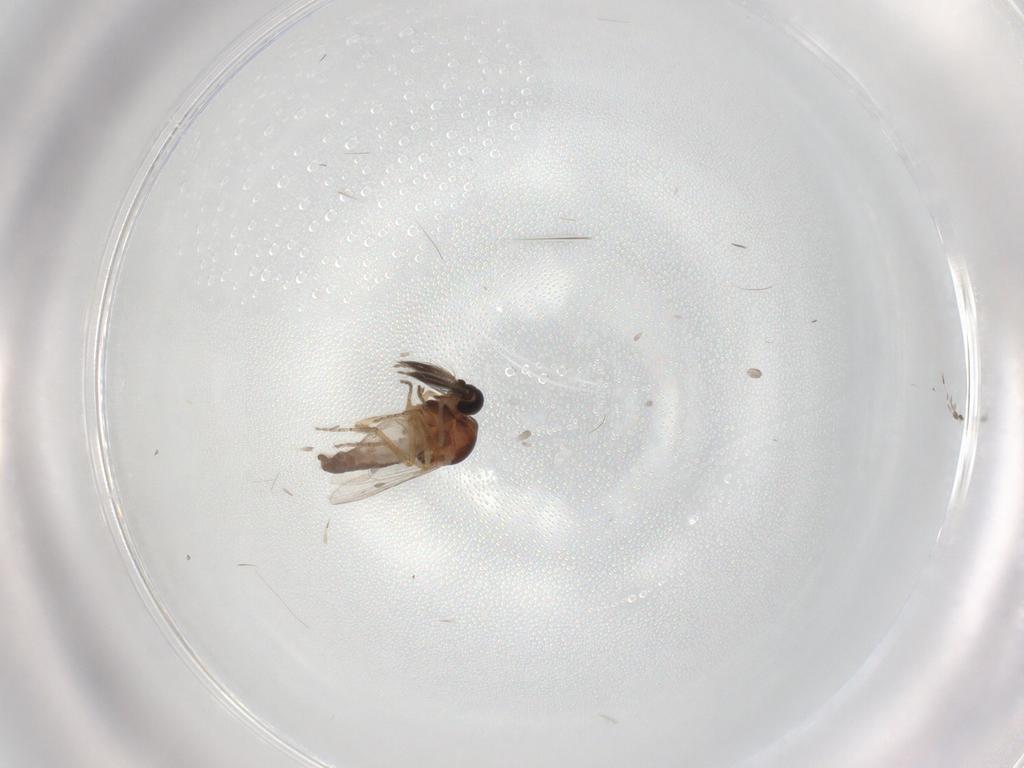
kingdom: Animalia
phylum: Arthropoda
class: Insecta
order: Diptera
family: Ceratopogonidae
